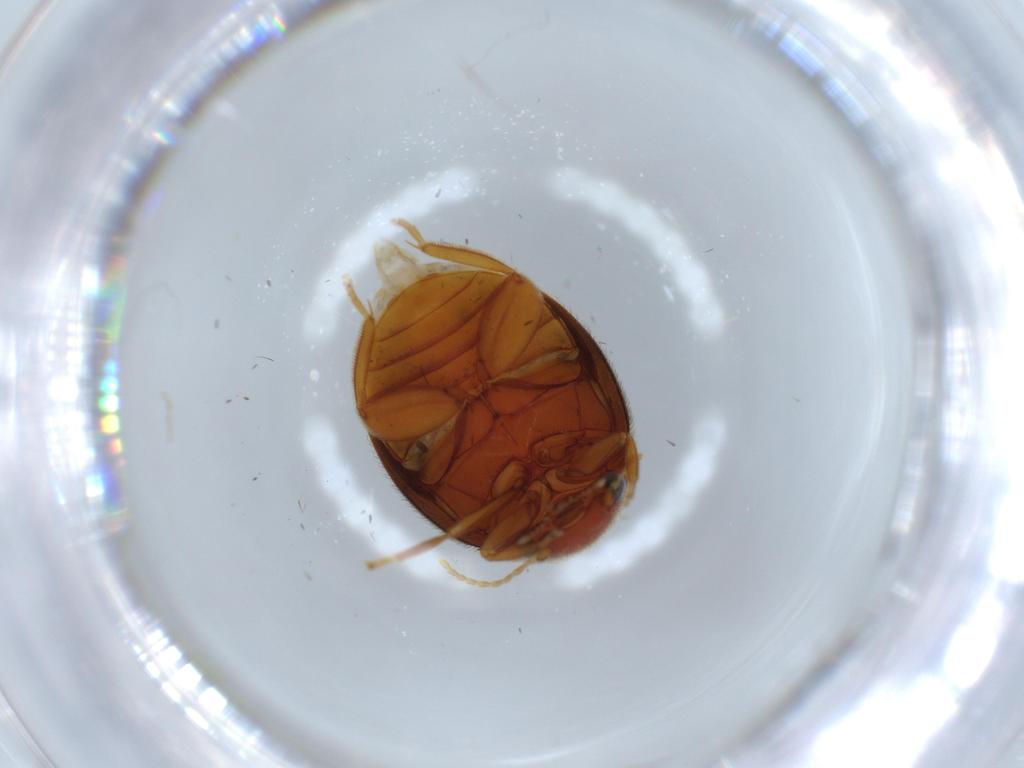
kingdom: Animalia
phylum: Arthropoda
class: Insecta
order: Coleoptera
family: Scirtidae
